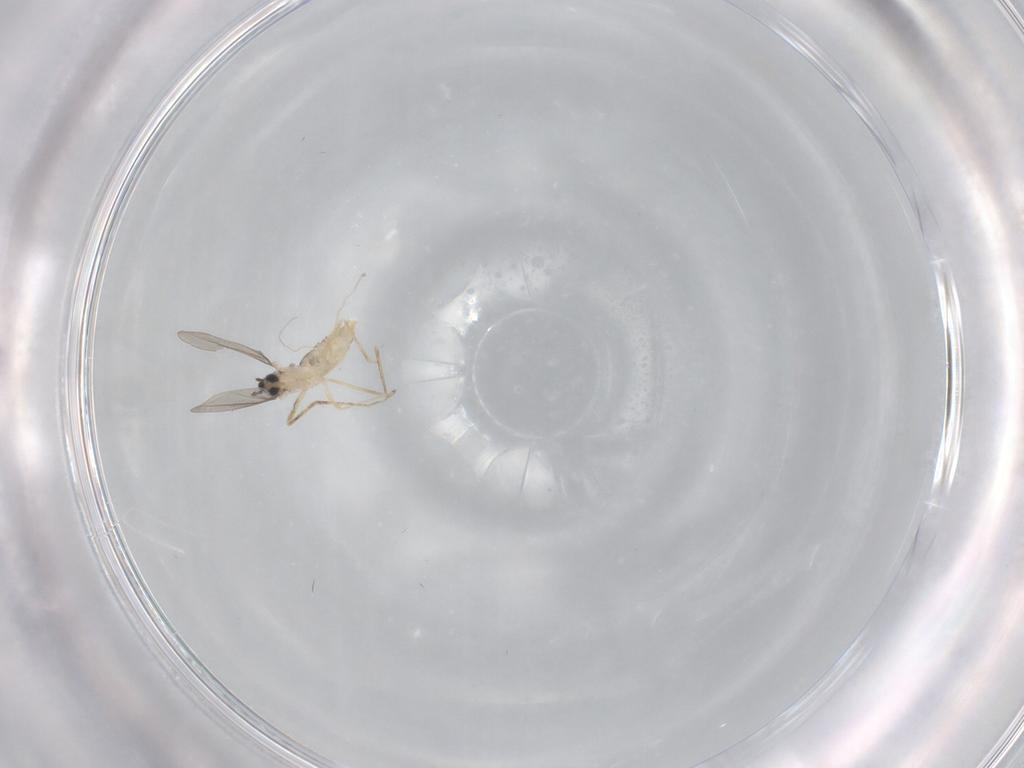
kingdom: Animalia
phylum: Arthropoda
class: Insecta
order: Diptera
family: Cecidomyiidae
